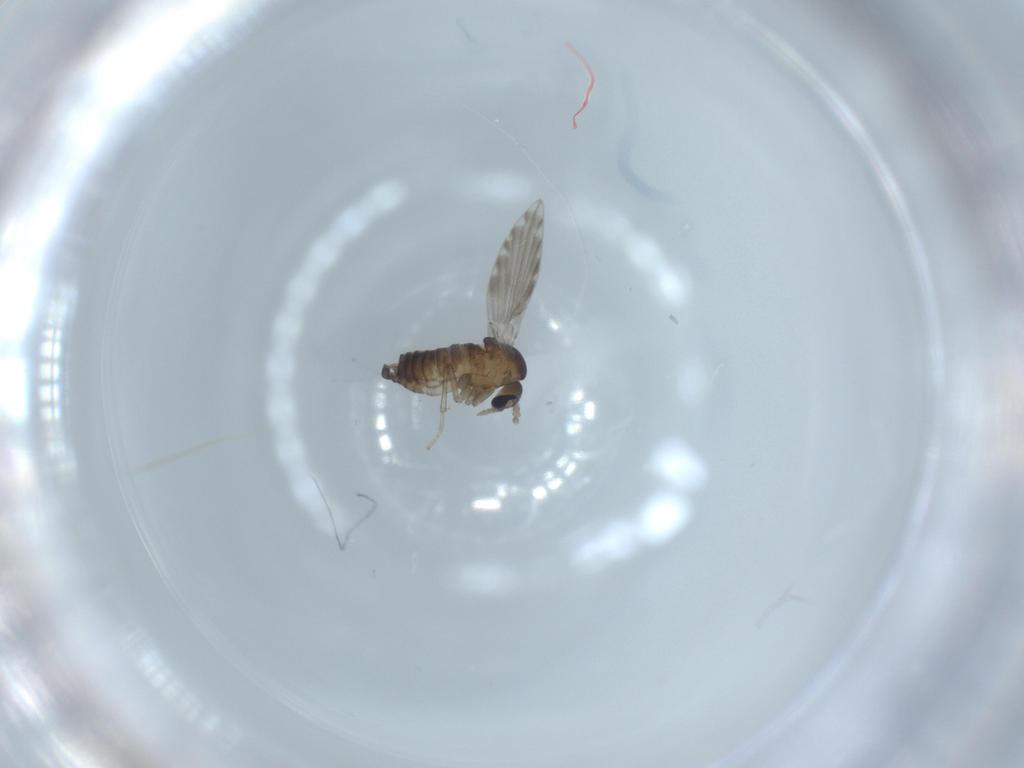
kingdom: Animalia
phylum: Arthropoda
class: Insecta
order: Diptera
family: Psychodidae
